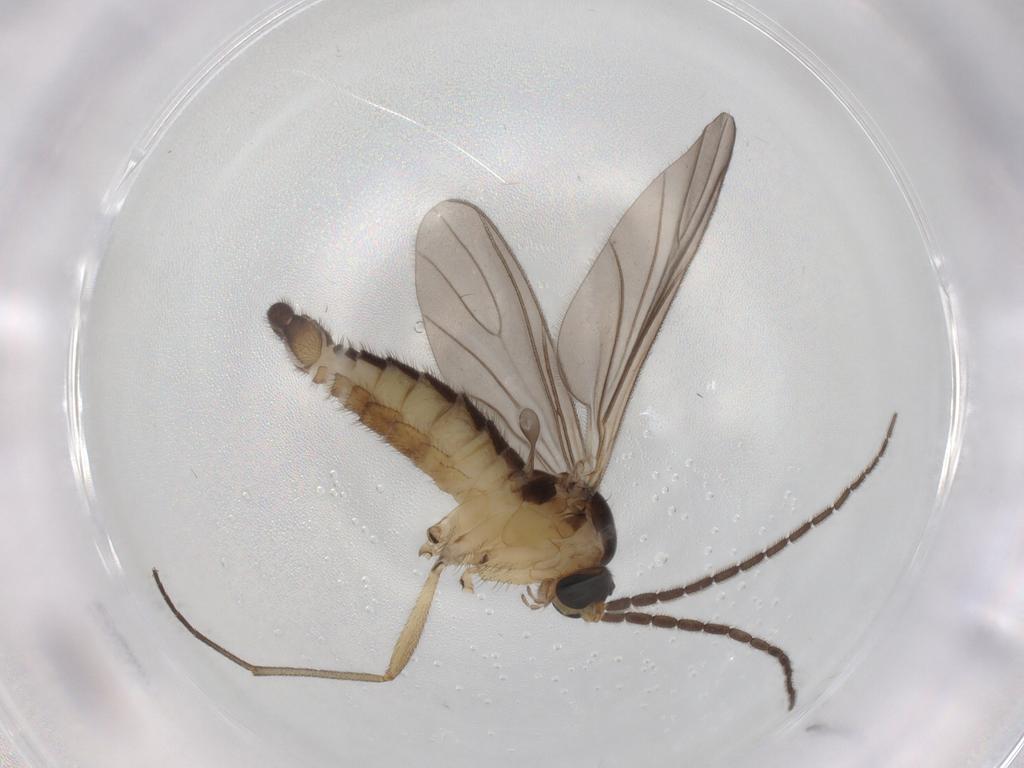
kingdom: Animalia
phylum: Arthropoda
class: Insecta
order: Diptera
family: Sciaridae
